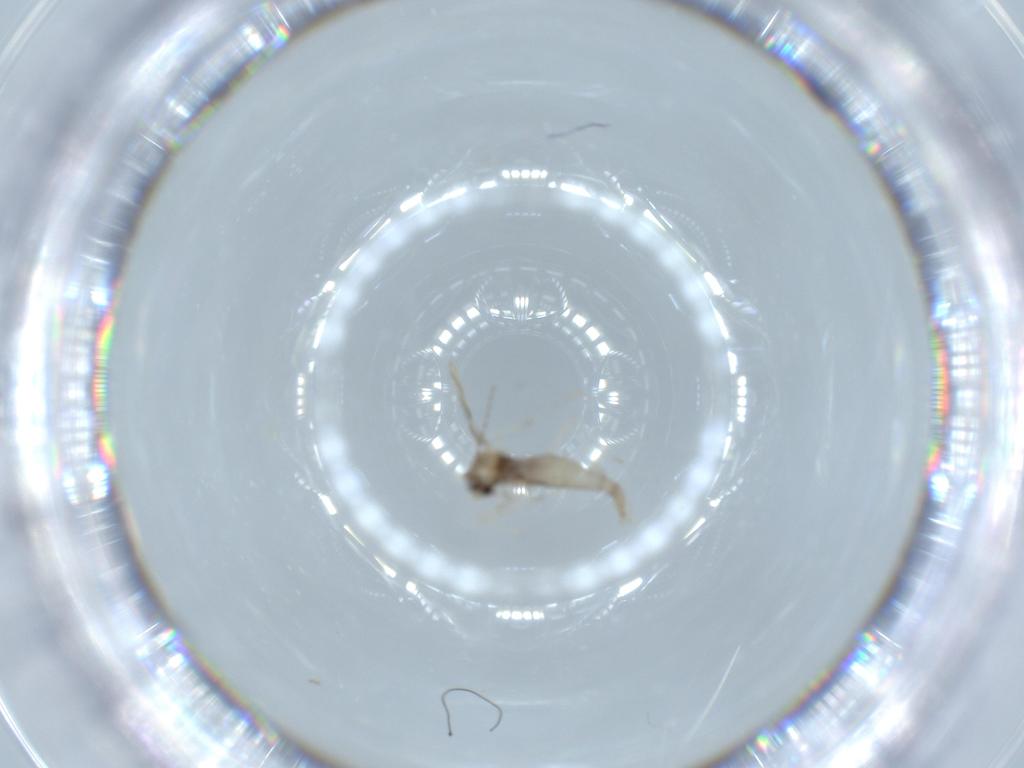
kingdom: Animalia
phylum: Arthropoda
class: Insecta
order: Diptera
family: Cecidomyiidae
